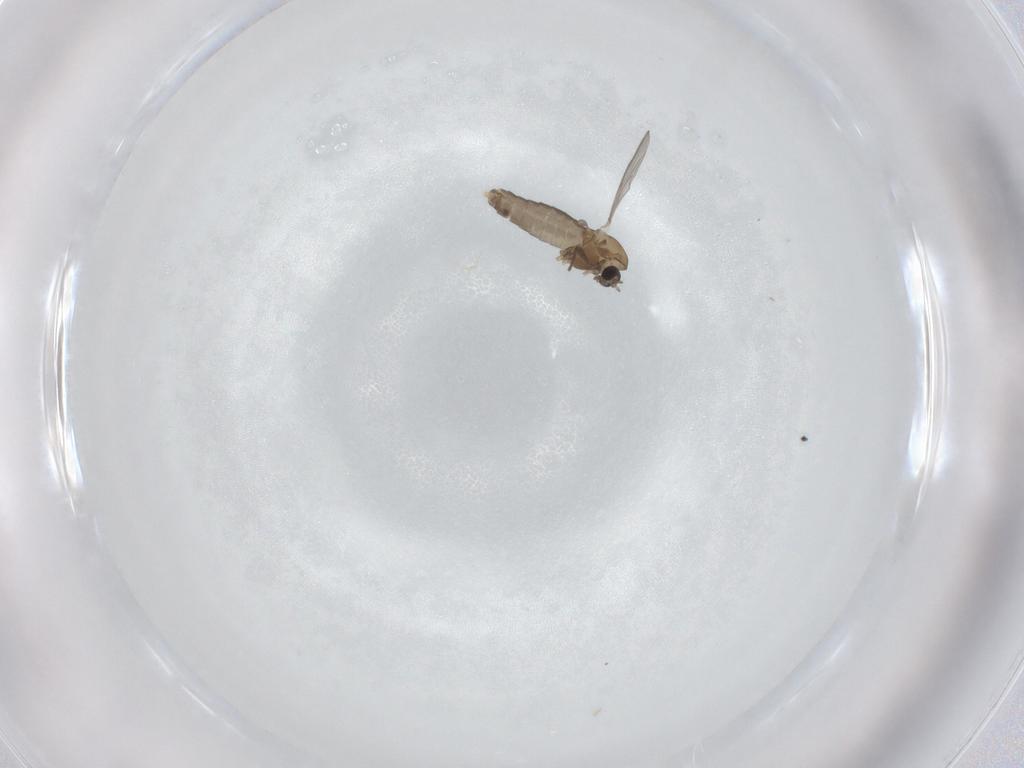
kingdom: Animalia
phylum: Arthropoda
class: Insecta
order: Diptera
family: Chironomidae
